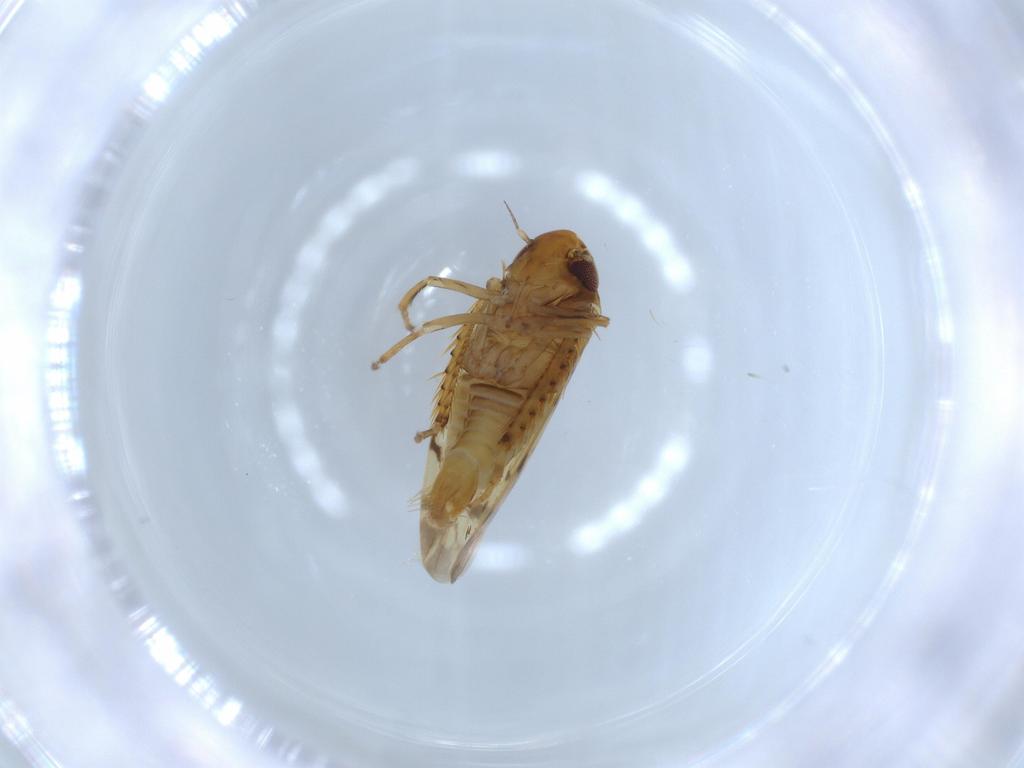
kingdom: Animalia
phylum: Arthropoda
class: Insecta
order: Hemiptera
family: Cicadellidae
